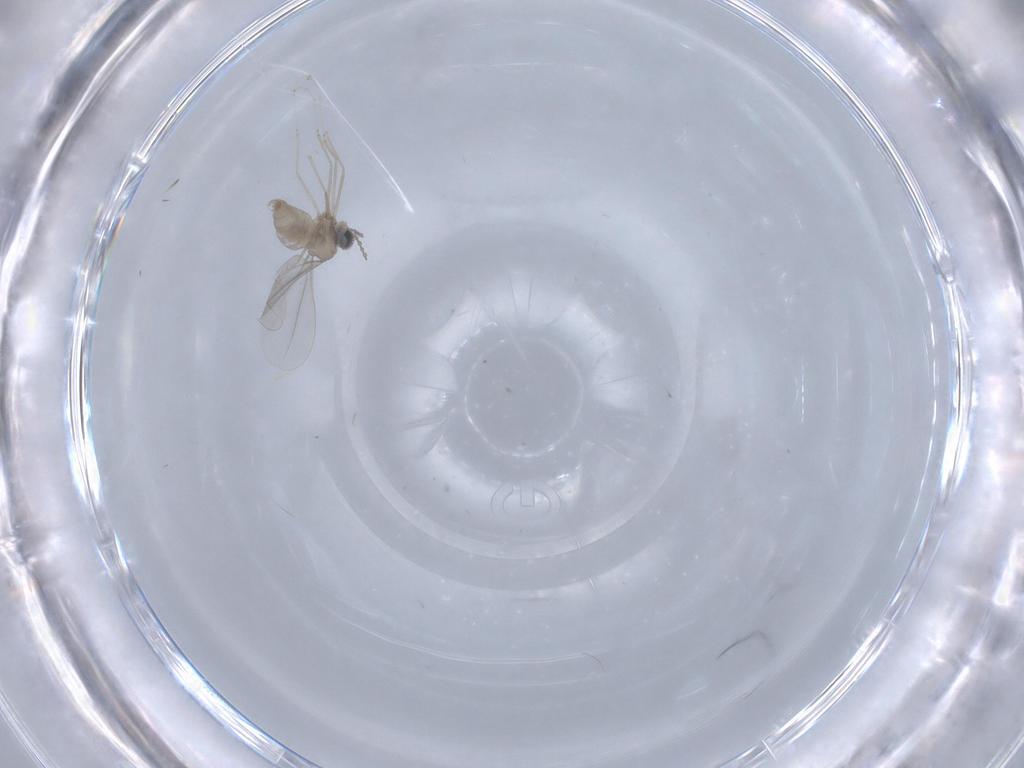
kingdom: Animalia
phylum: Arthropoda
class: Insecta
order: Diptera
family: Cecidomyiidae
